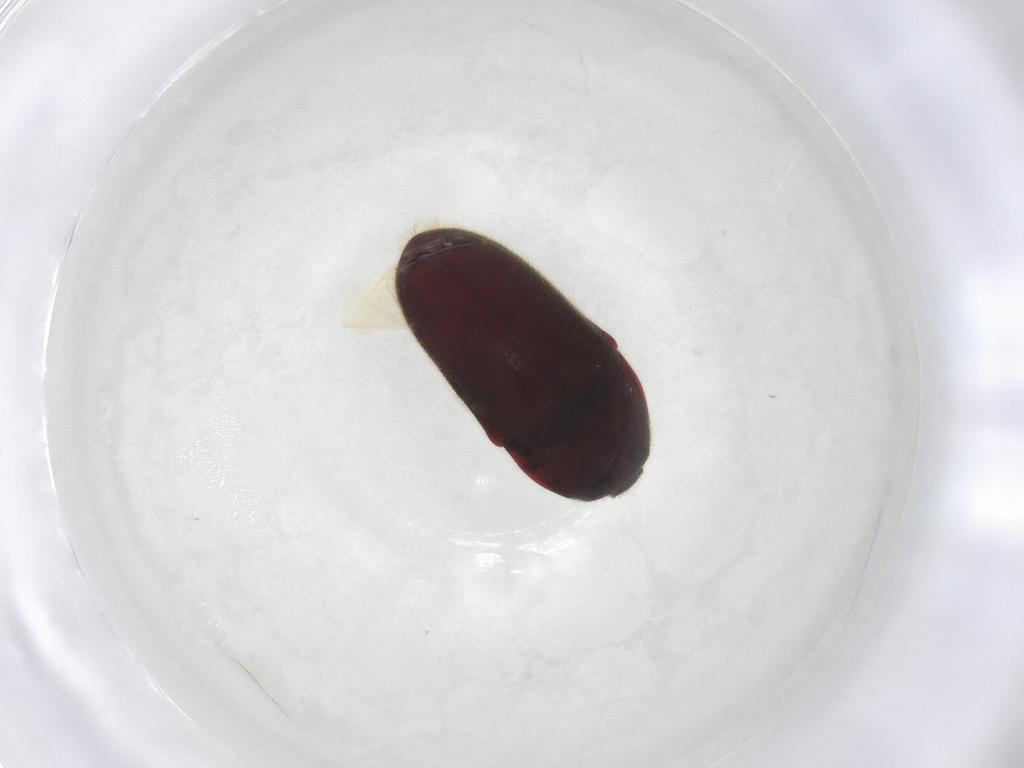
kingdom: Animalia
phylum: Arthropoda
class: Insecta
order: Coleoptera
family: Throscidae
